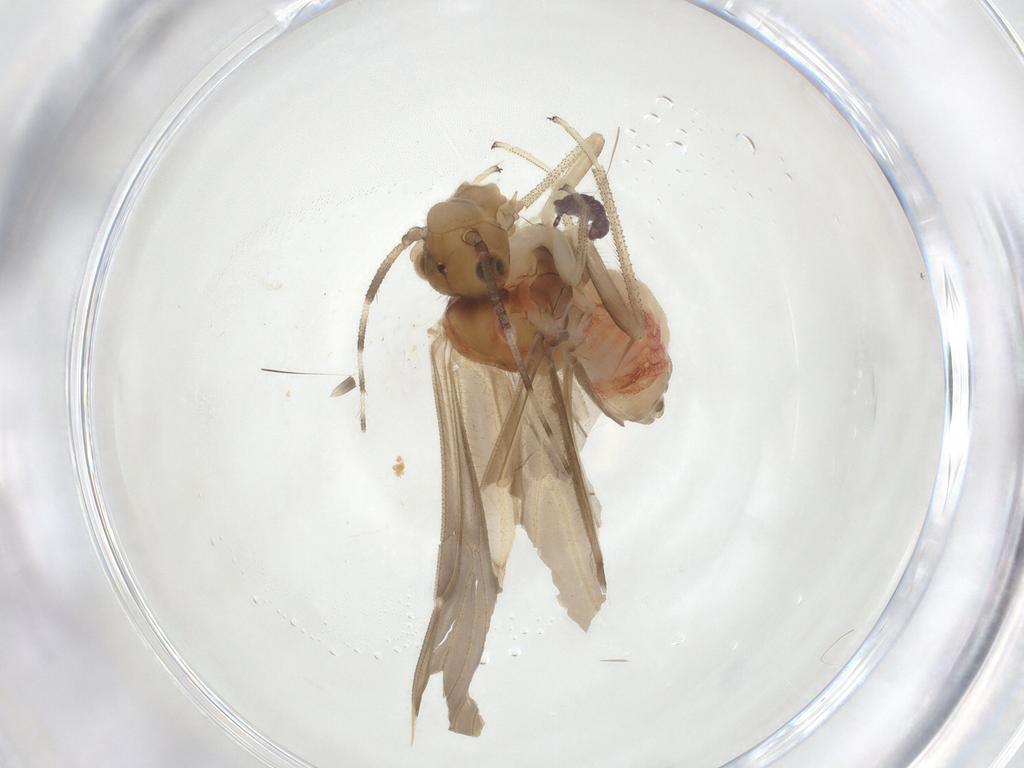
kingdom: Animalia
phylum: Arthropoda
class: Insecta
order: Psocodea
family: Amphipsocidae
